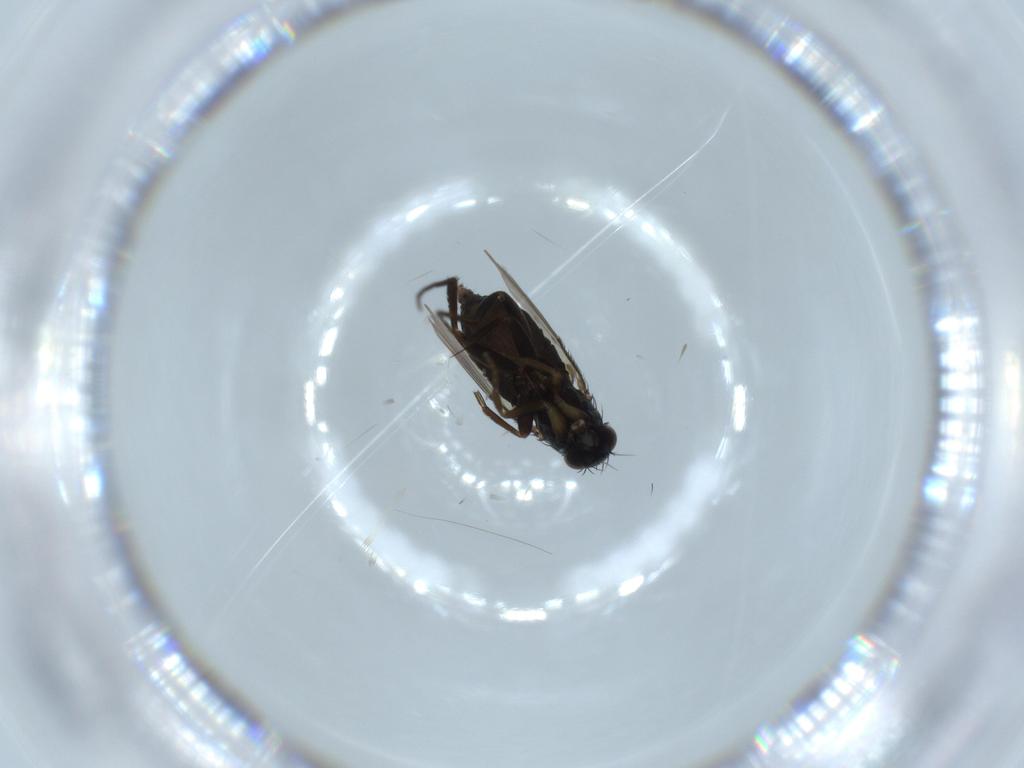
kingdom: Animalia
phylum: Arthropoda
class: Insecta
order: Diptera
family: Phoridae
